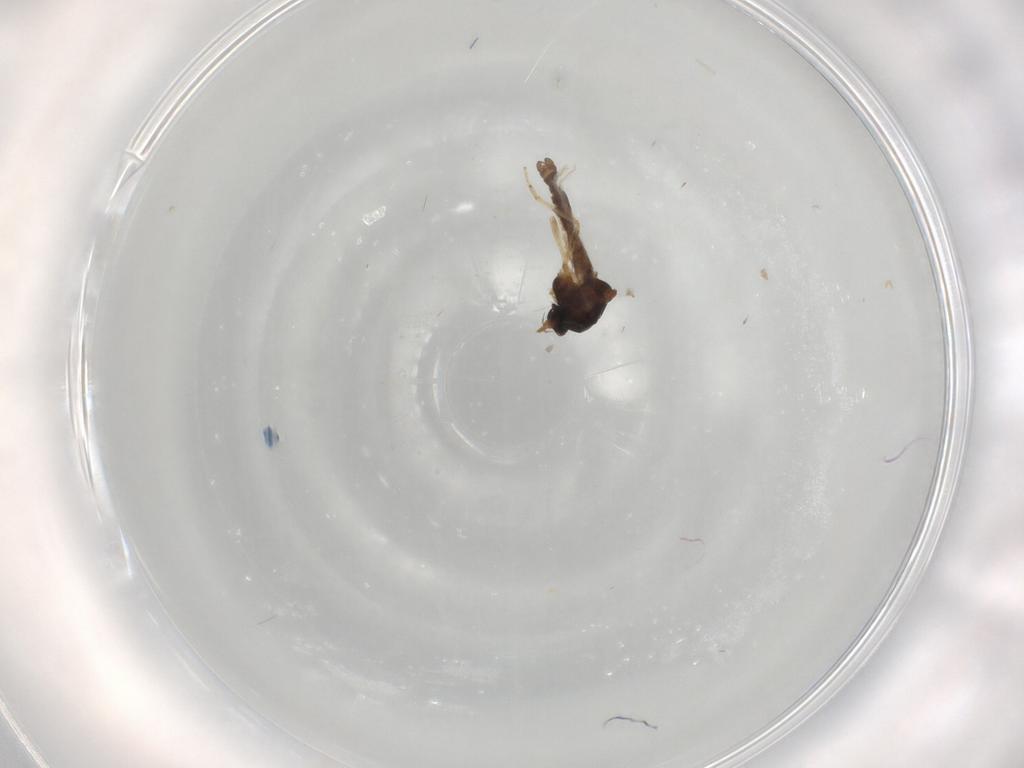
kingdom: Animalia
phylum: Arthropoda
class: Insecta
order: Diptera
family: Ceratopogonidae
